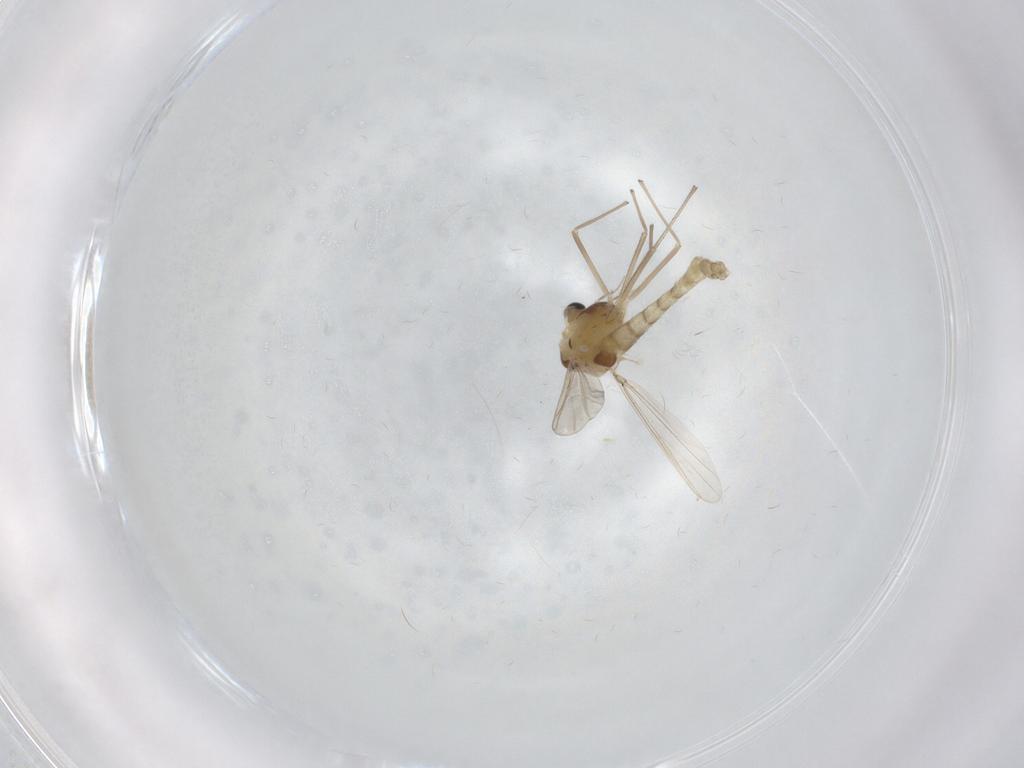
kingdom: Animalia
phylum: Arthropoda
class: Insecta
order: Diptera
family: Chironomidae
